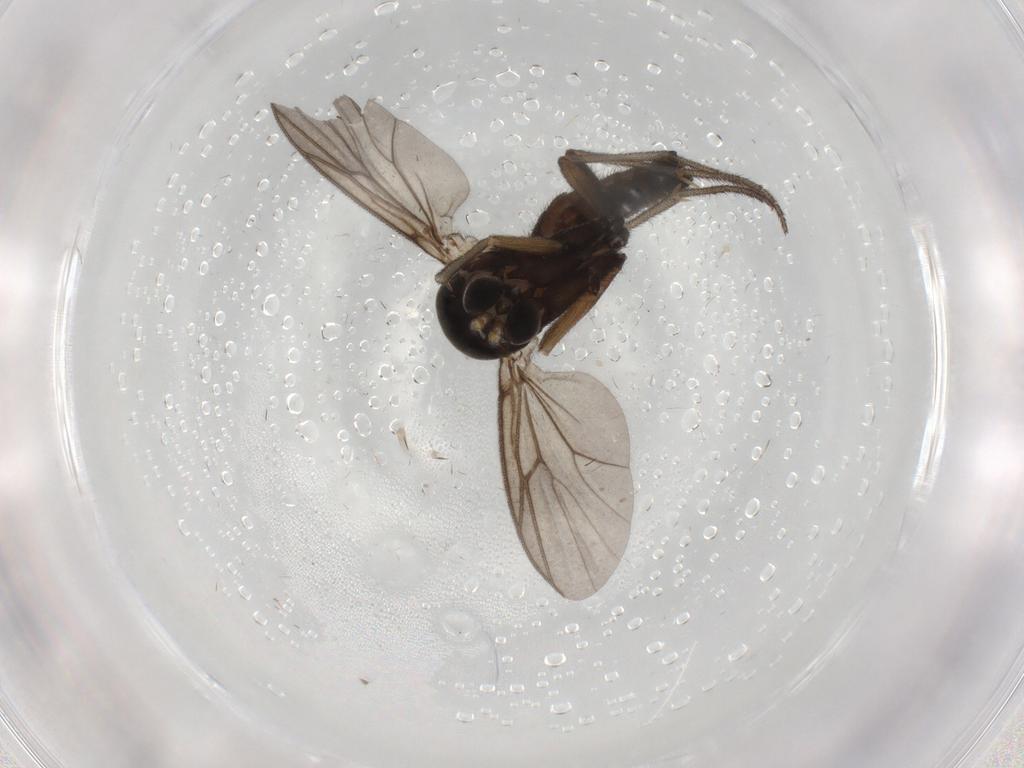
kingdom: Animalia
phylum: Arthropoda
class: Insecta
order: Diptera
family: Mycetophilidae
